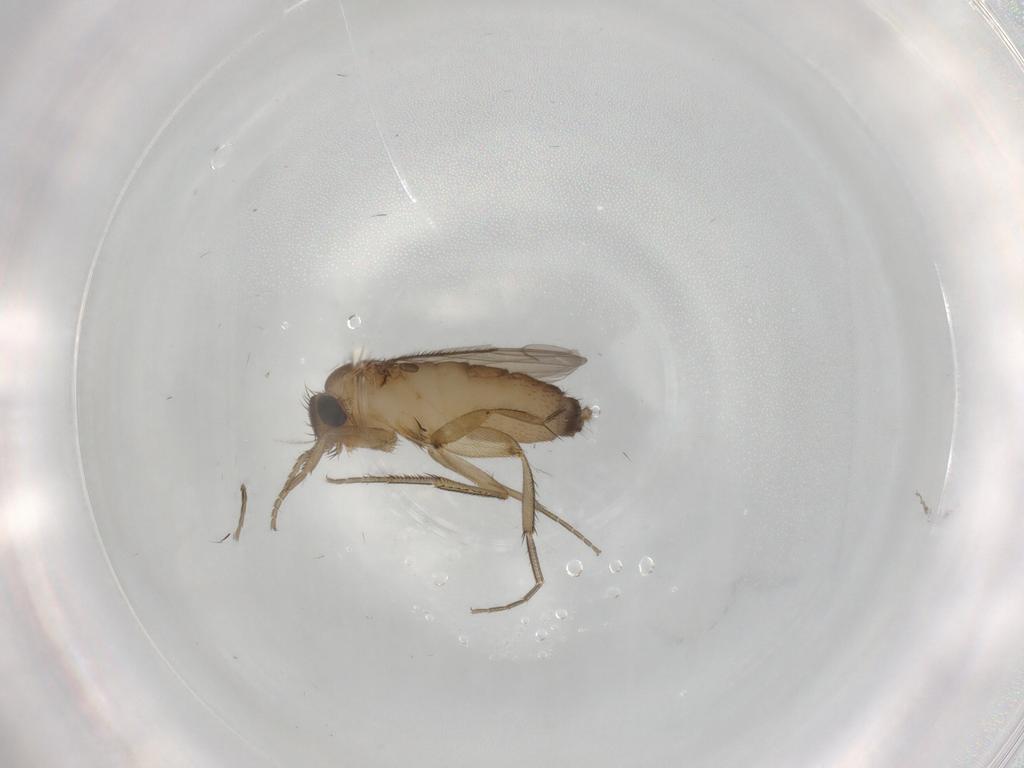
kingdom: Animalia
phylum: Arthropoda
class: Insecta
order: Diptera
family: Phoridae
